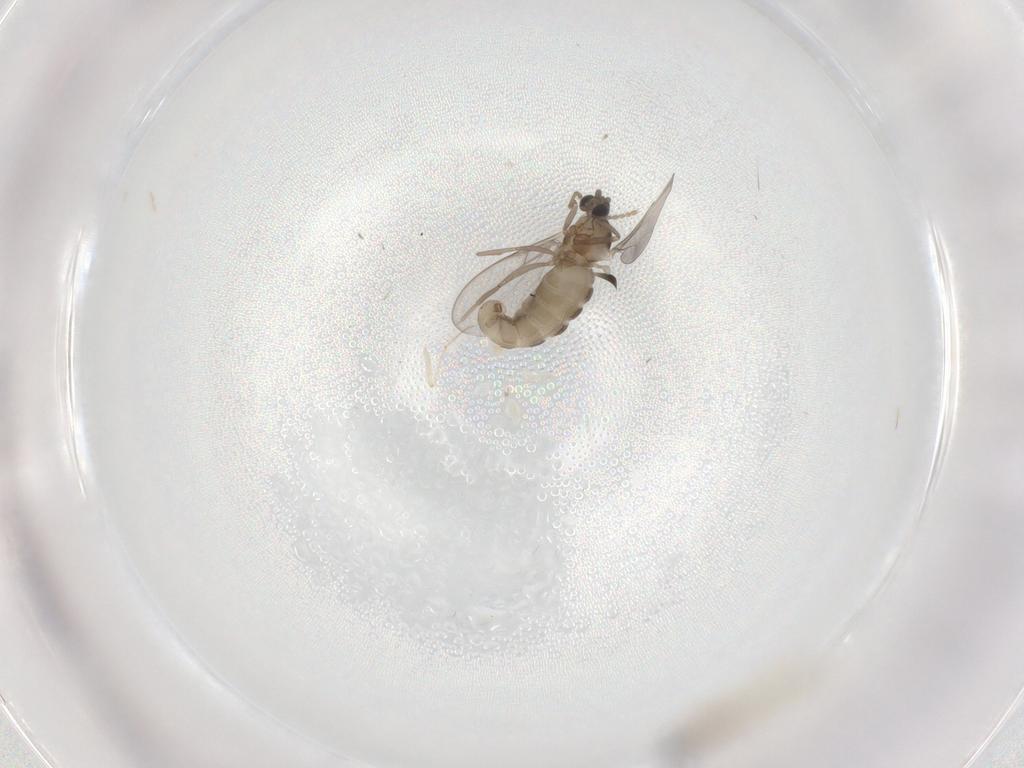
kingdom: Animalia
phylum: Arthropoda
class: Insecta
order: Diptera
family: Cecidomyiidae
